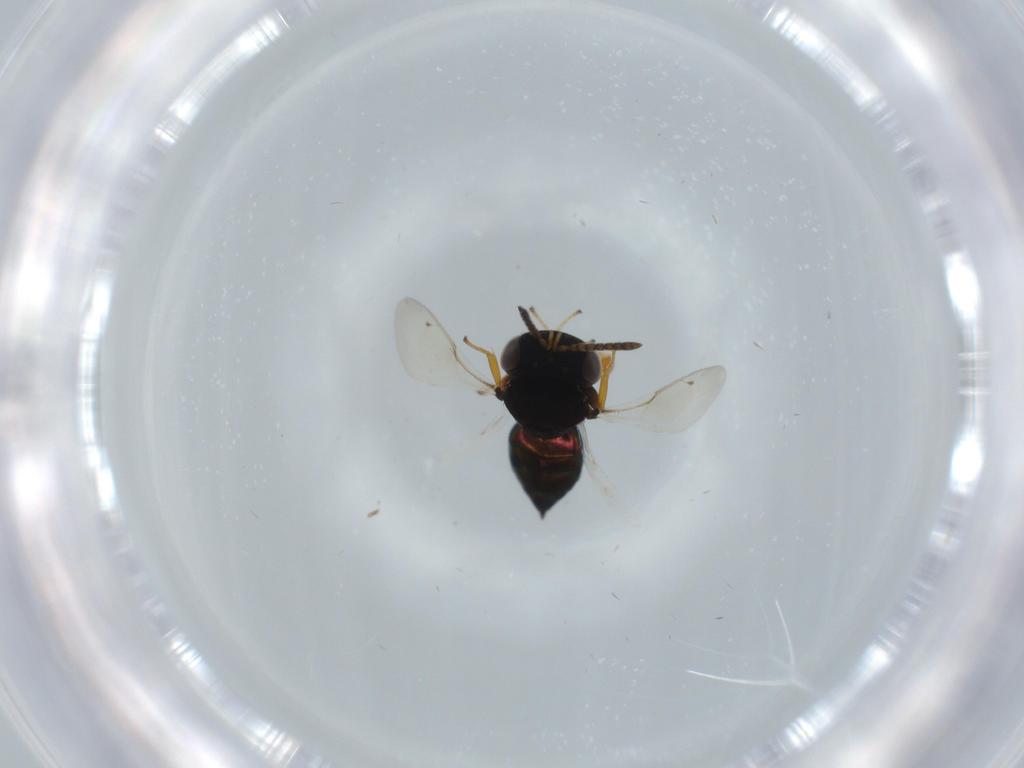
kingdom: Animalia
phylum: Arthropoda
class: Insecta
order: Hymenoptera
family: Pteromalidae
